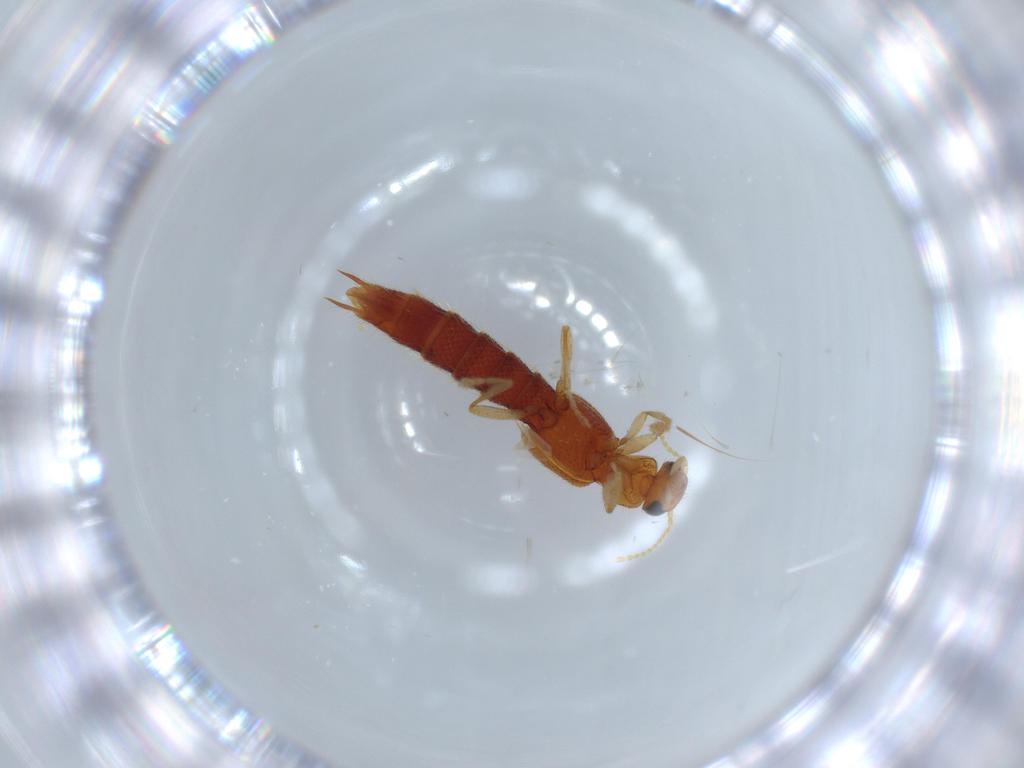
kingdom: Animalia
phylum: Arthropoda
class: Insecta
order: Coleoptera
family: Staphylinidae
